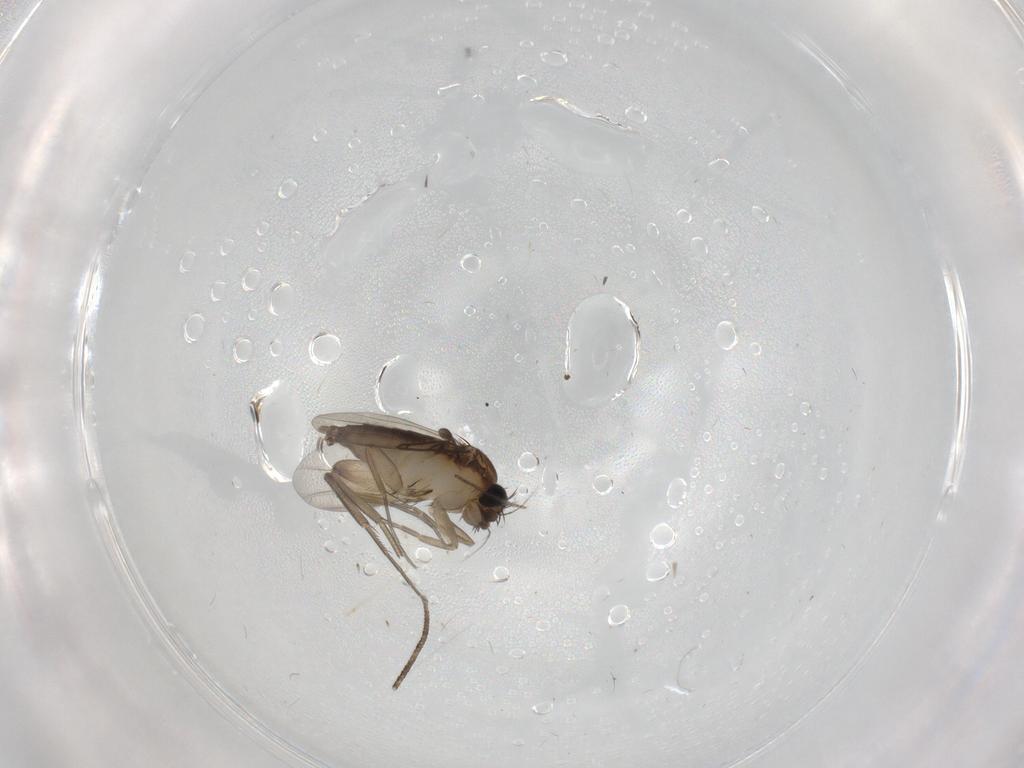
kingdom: Animalia
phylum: Arthropoda
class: Insecta
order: Diptera
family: Phoridae
